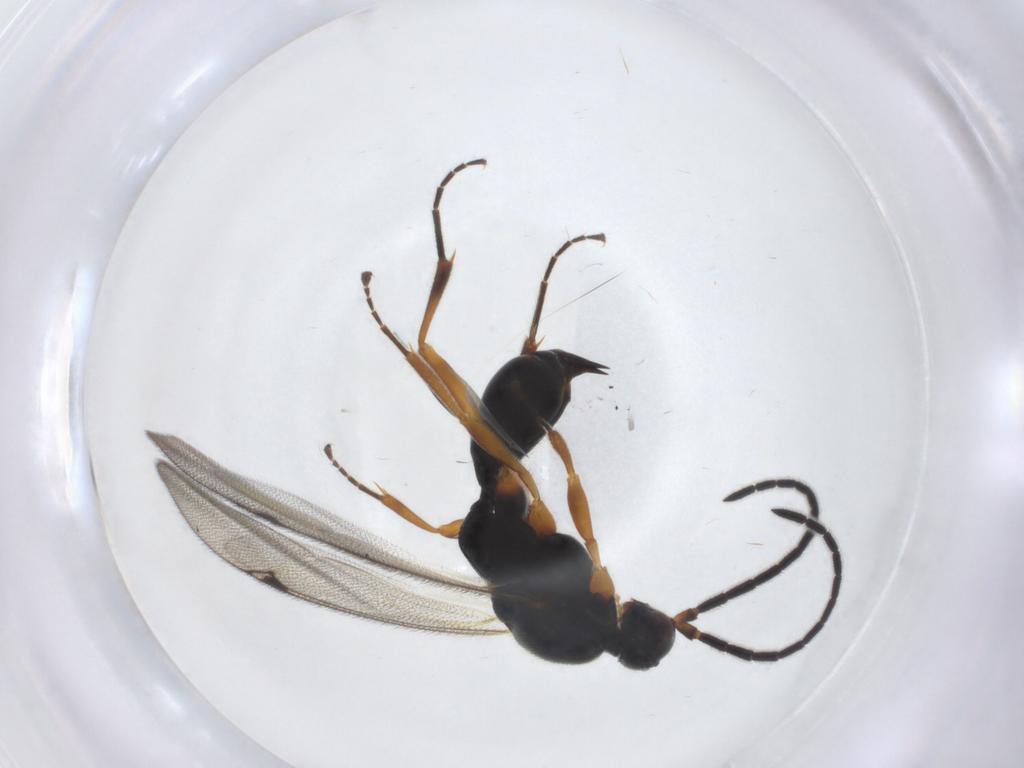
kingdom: Animalia
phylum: Arthropoda
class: Insecta
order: Hymenoptera
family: Proctotrupidae
